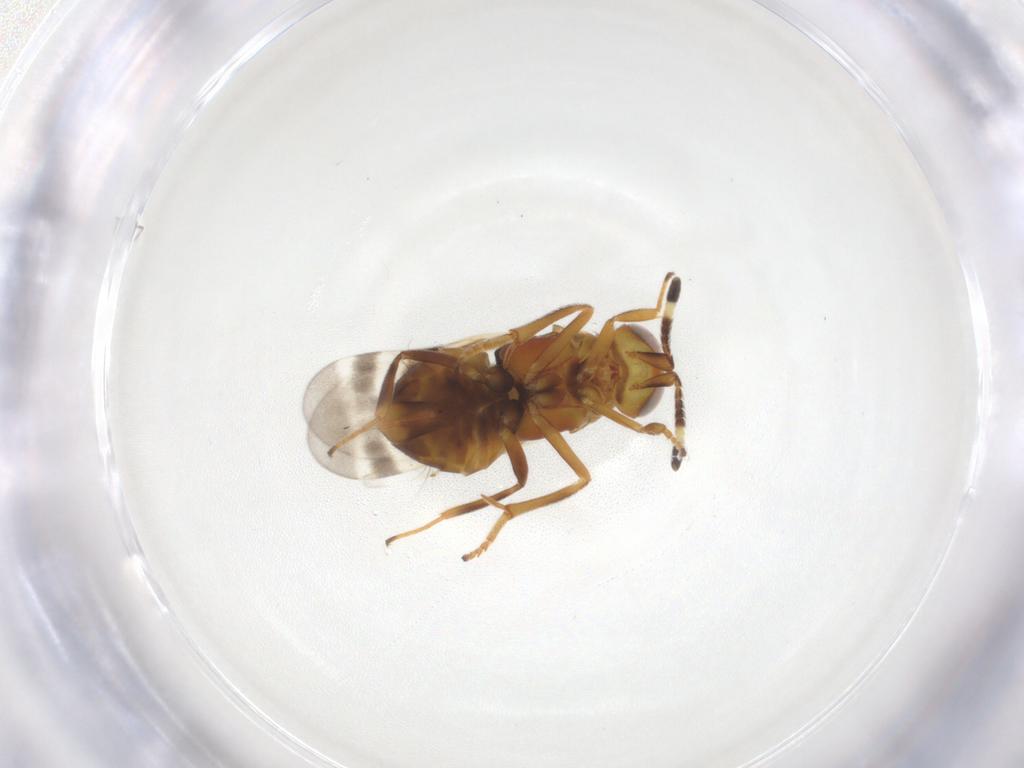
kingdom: Animalia
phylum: Arthropoda
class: Insecta
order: Hymenoptera
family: Encyrtidae
